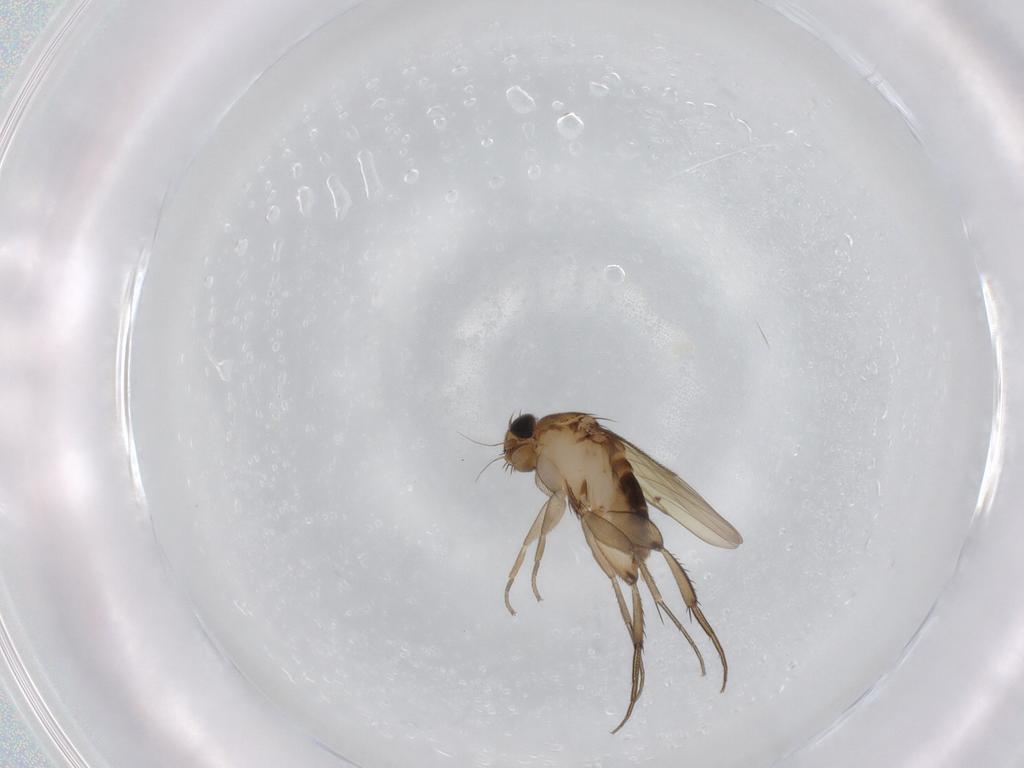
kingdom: Animalia
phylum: Arthropoda
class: Insecta
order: Diptera
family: Phoridae
